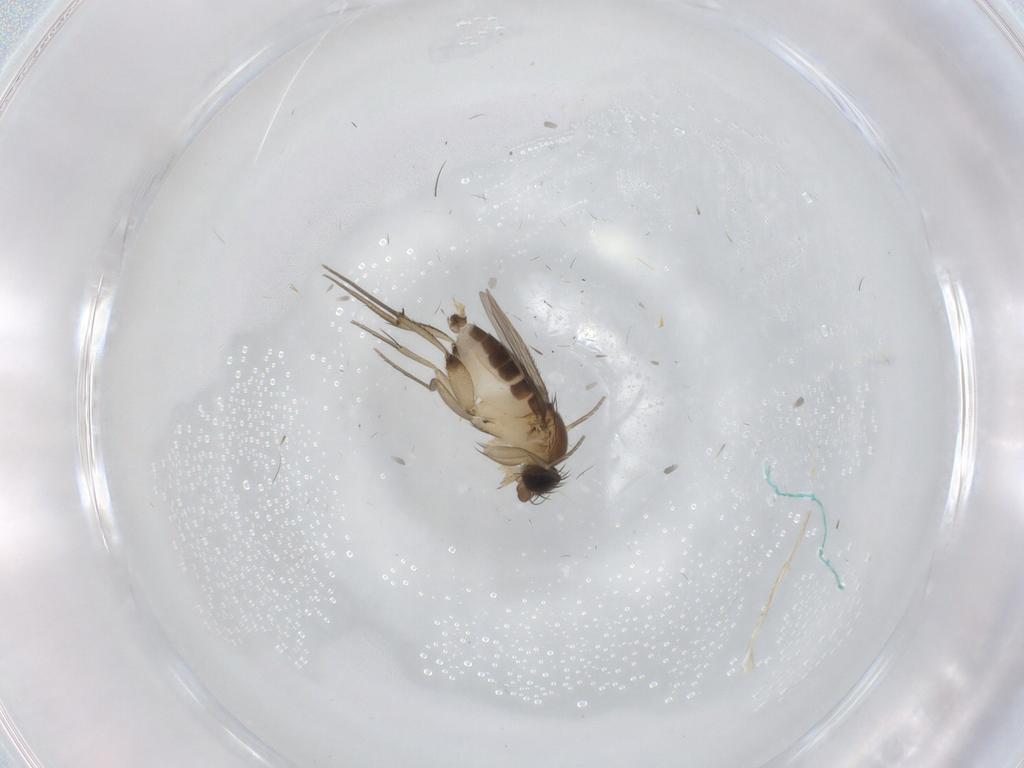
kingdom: Animalia
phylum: Arthropoda
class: Insecta
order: Diptera
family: Phoridae
